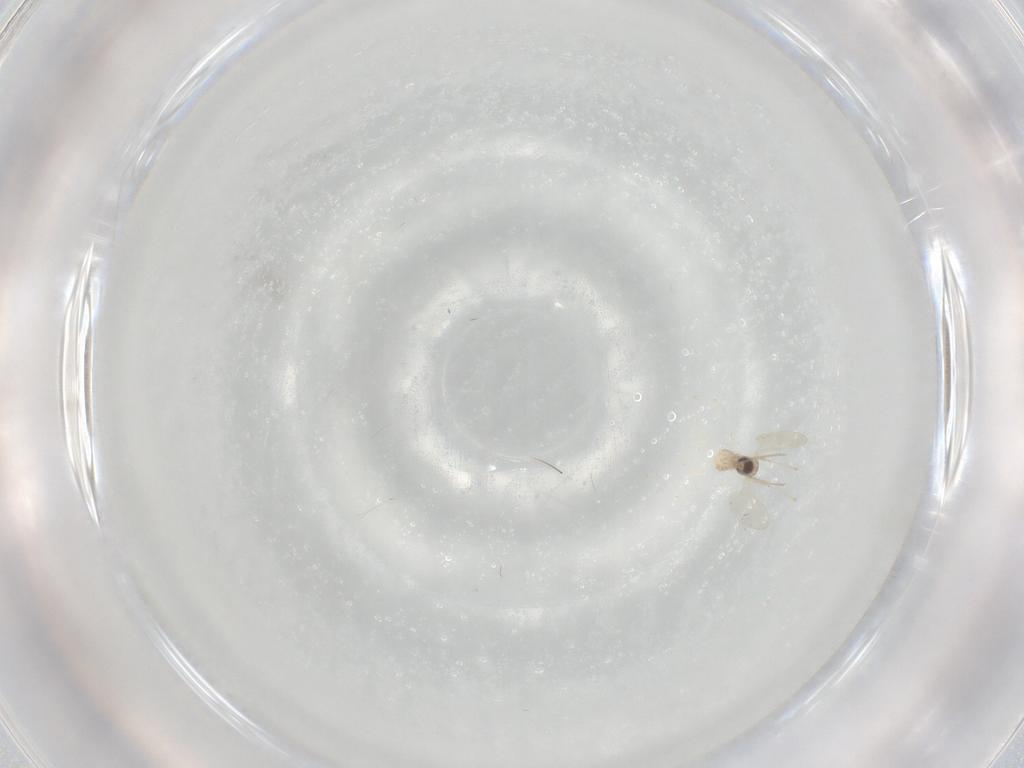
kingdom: Animalia
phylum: Arthropoda
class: Insecta
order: Diptera
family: Cecidomyiidae
